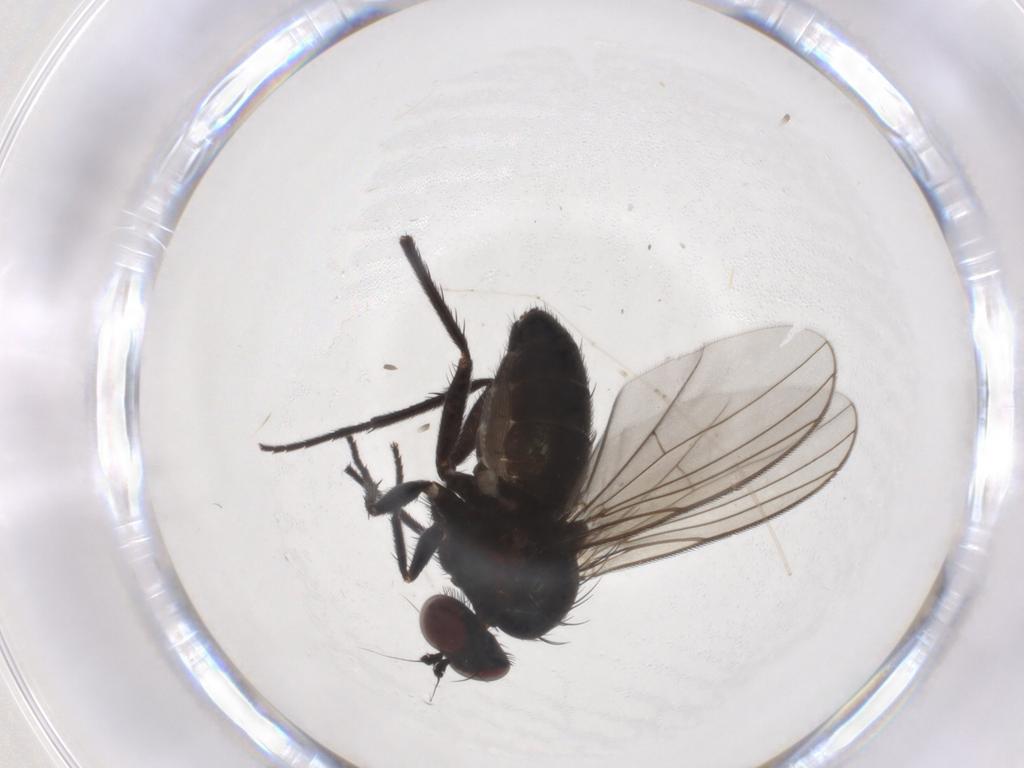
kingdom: Animalia
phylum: Arthropoda
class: Insecta
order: Diptera
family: Dolichopodidae
